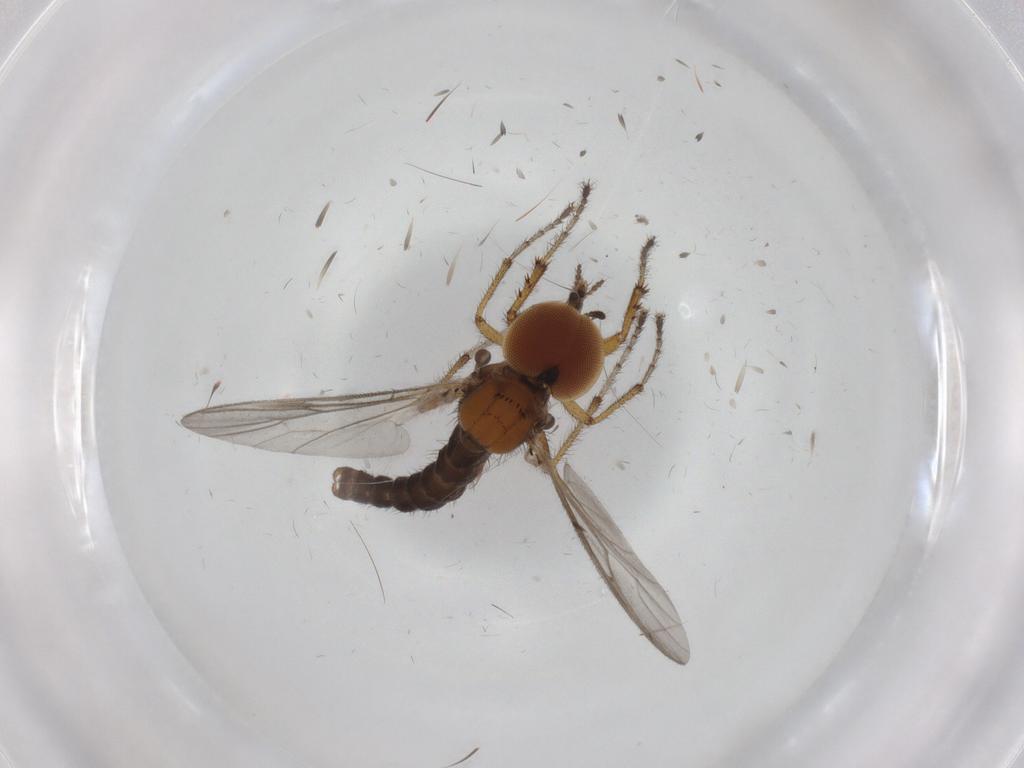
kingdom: Animalia
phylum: Arthropoda
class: Insecta
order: Diptera
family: Bibionidae
